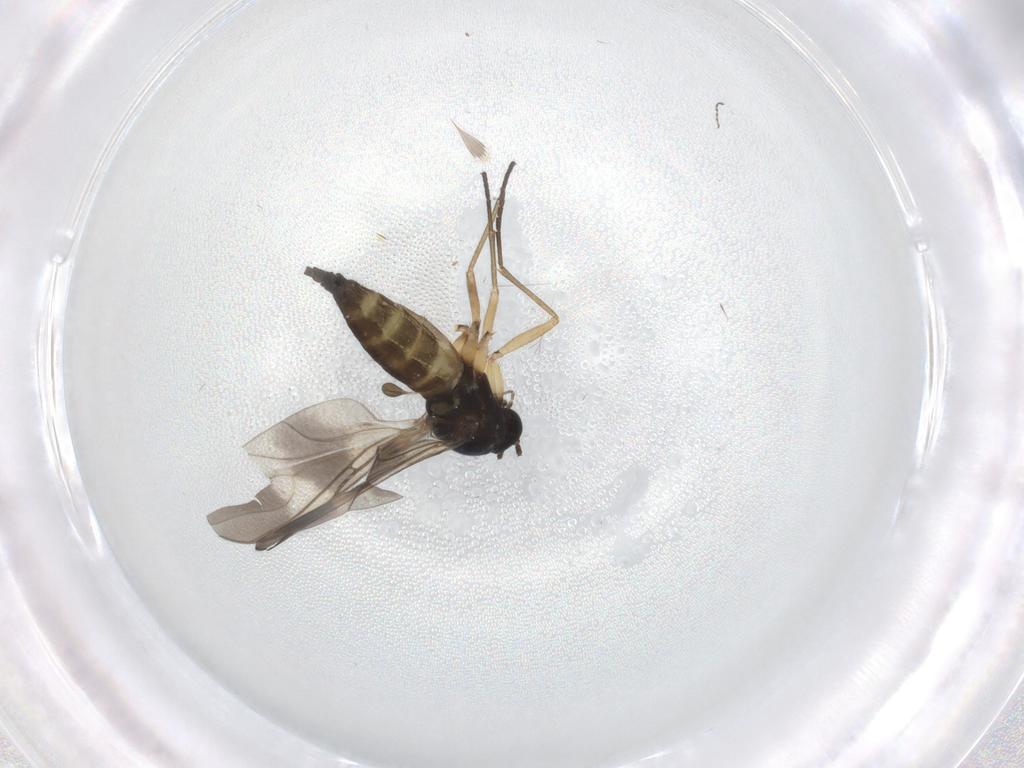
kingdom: Animalia
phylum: Arthropoda
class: Insecta
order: Diptera
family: Sciaridae
